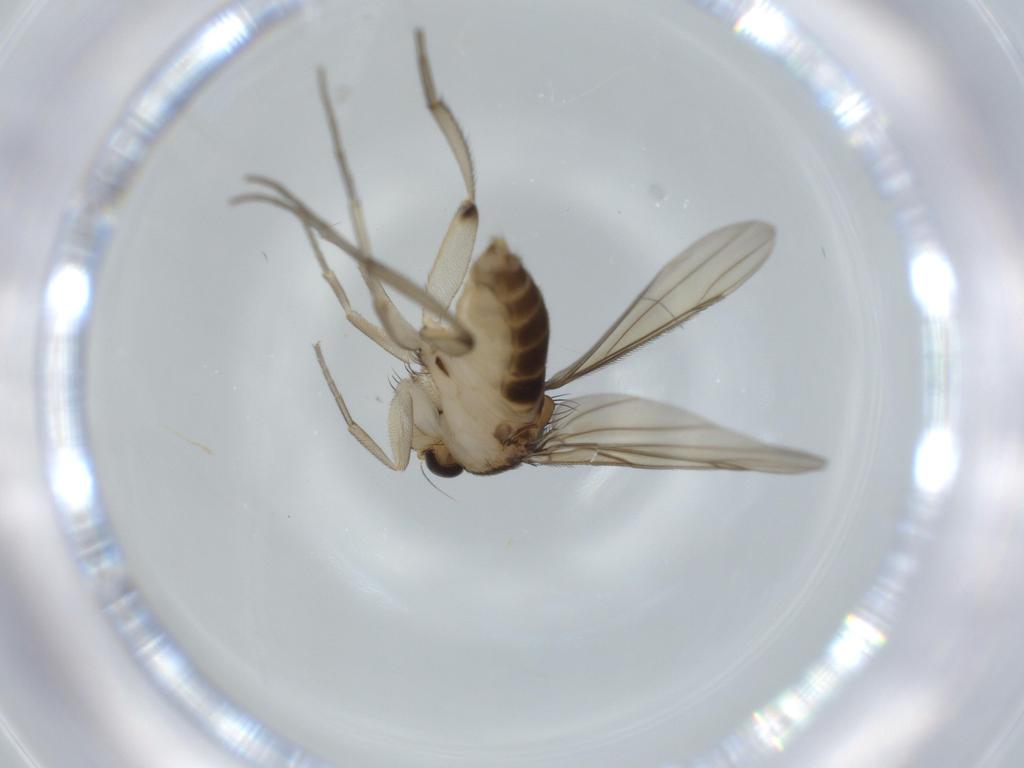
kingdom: Animalia
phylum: Arthropoda
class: Insecta
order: Diptera
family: Phoridae
